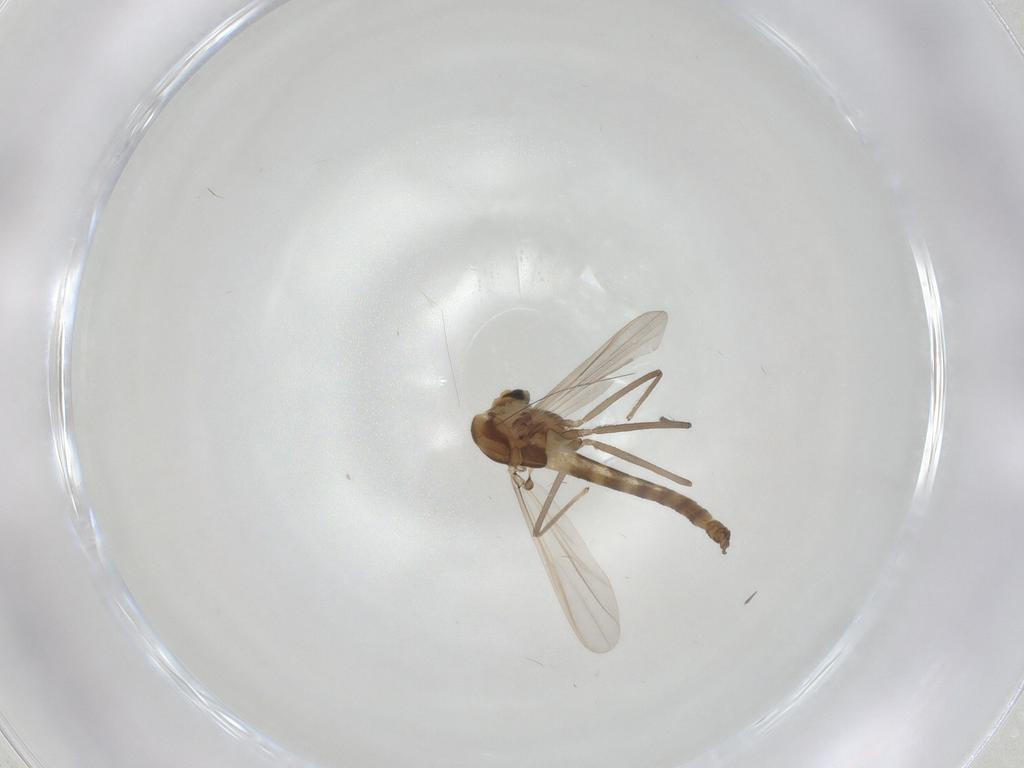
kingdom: Animalia
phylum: Arthropoda
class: Insecta
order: Diptera
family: Chironomidae
